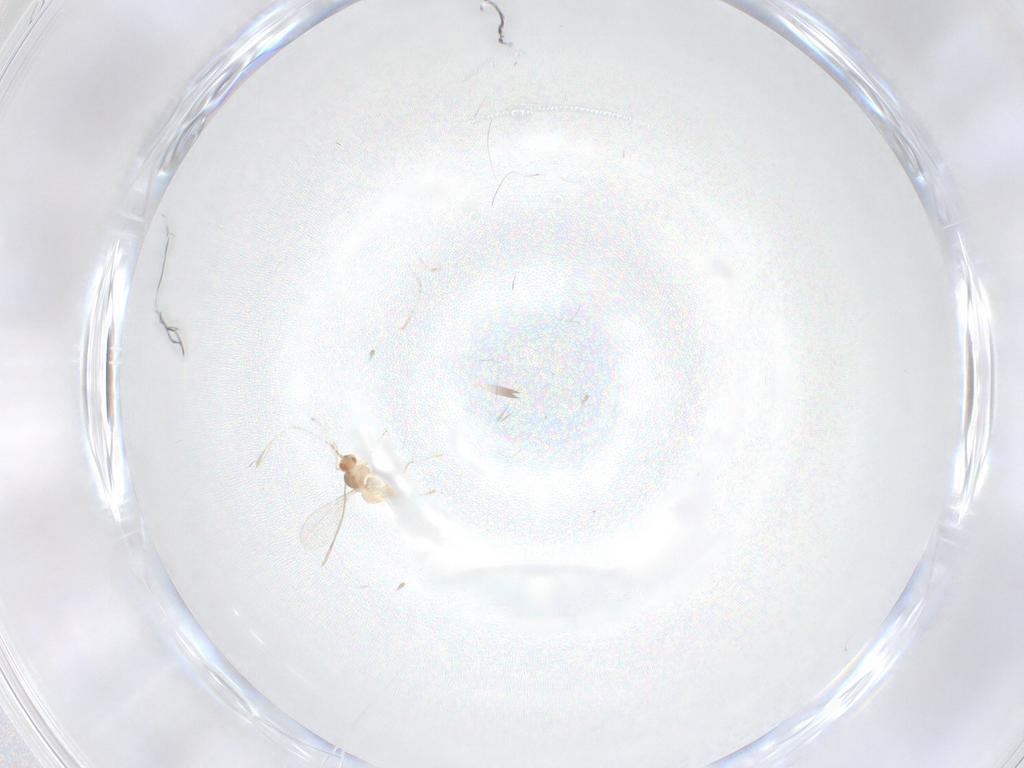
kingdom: Animalia
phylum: Arthropoda
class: Insecta
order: Diptera
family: Cecidomyiidae
